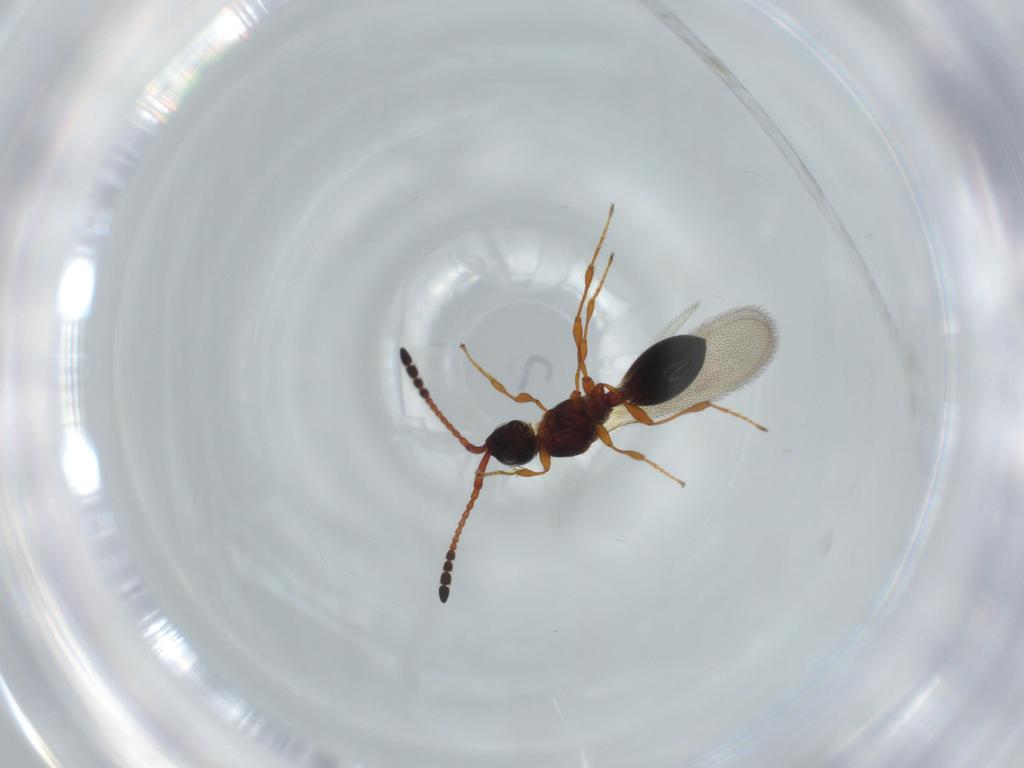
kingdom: Animalia
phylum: Arthropoda
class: Insecta
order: Hymenoptera
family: Diapriidae
